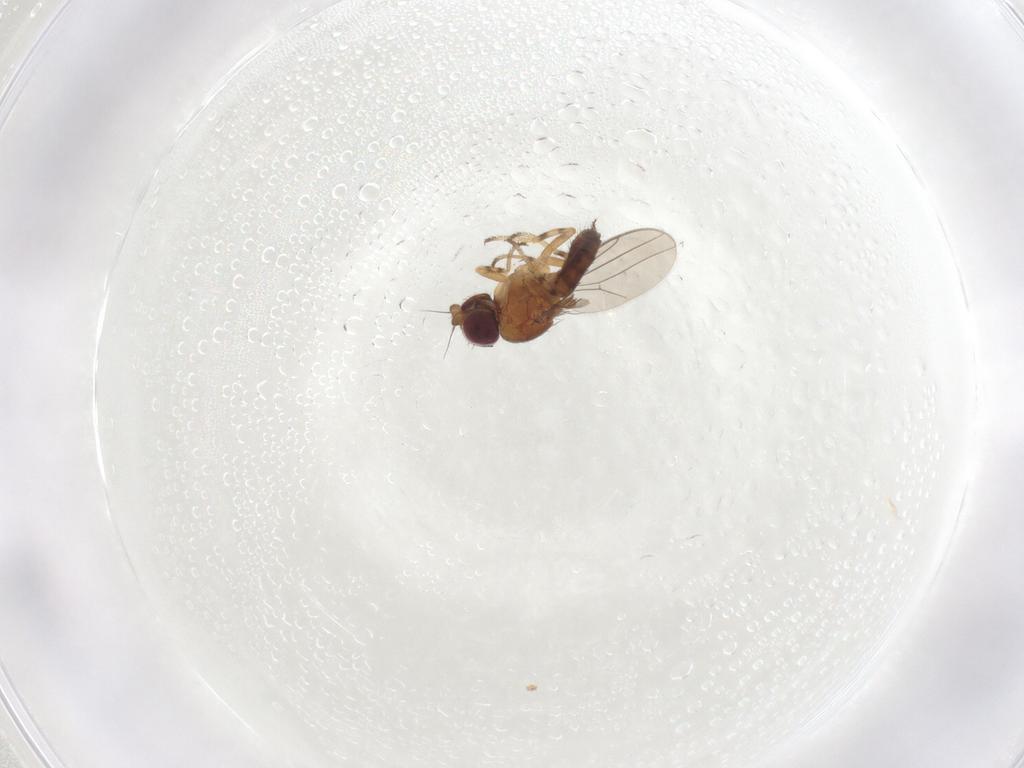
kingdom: Animalia
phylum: Arthropoda
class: Insecta
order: Diptera
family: Chloropidae
